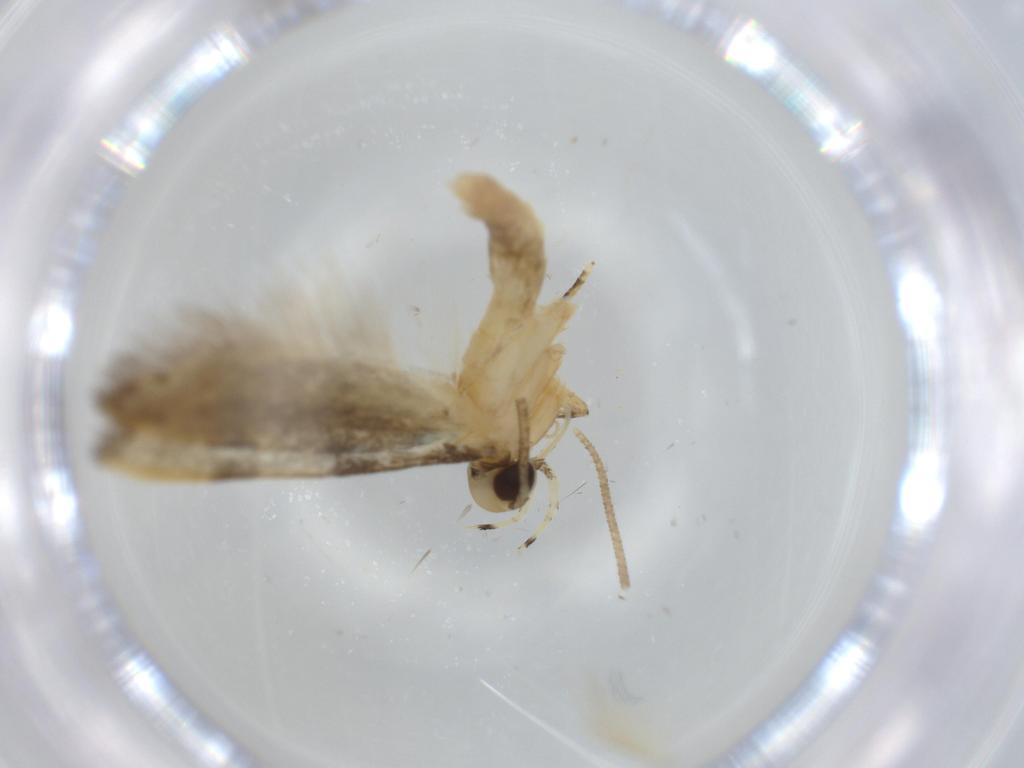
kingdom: Animalia
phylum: Arthropoda
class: Insecta
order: Lepidoptera
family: Autostichidae
